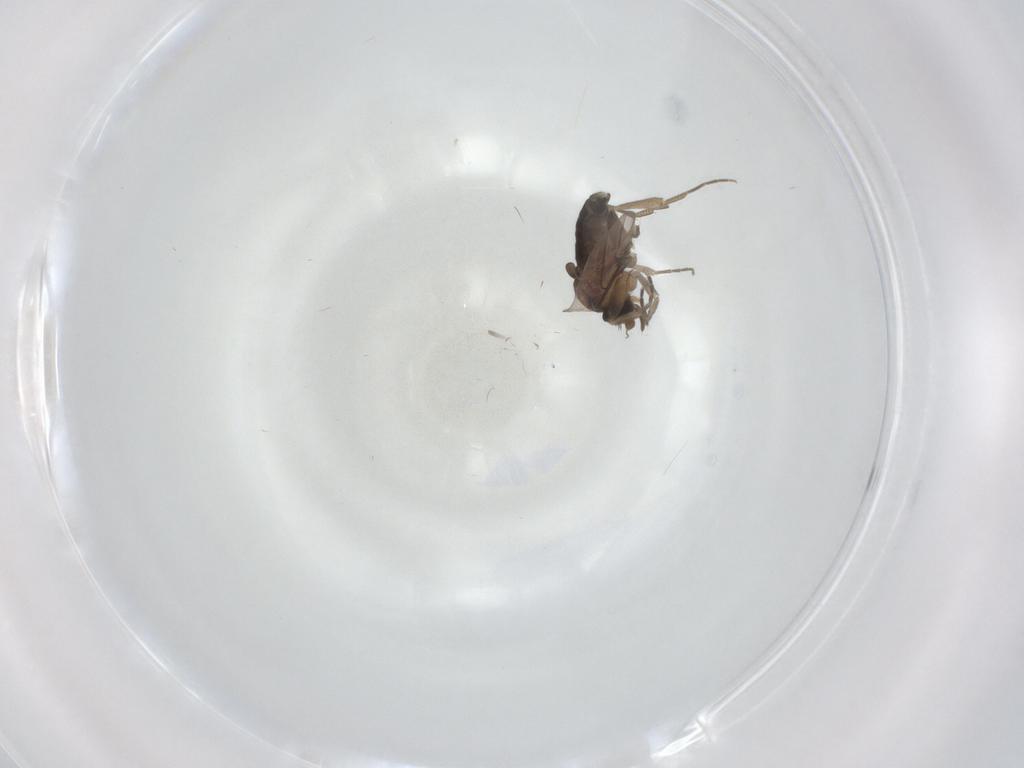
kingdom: Animalia
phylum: Arthropoda
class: Insecta
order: Diptera
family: Phoridae
